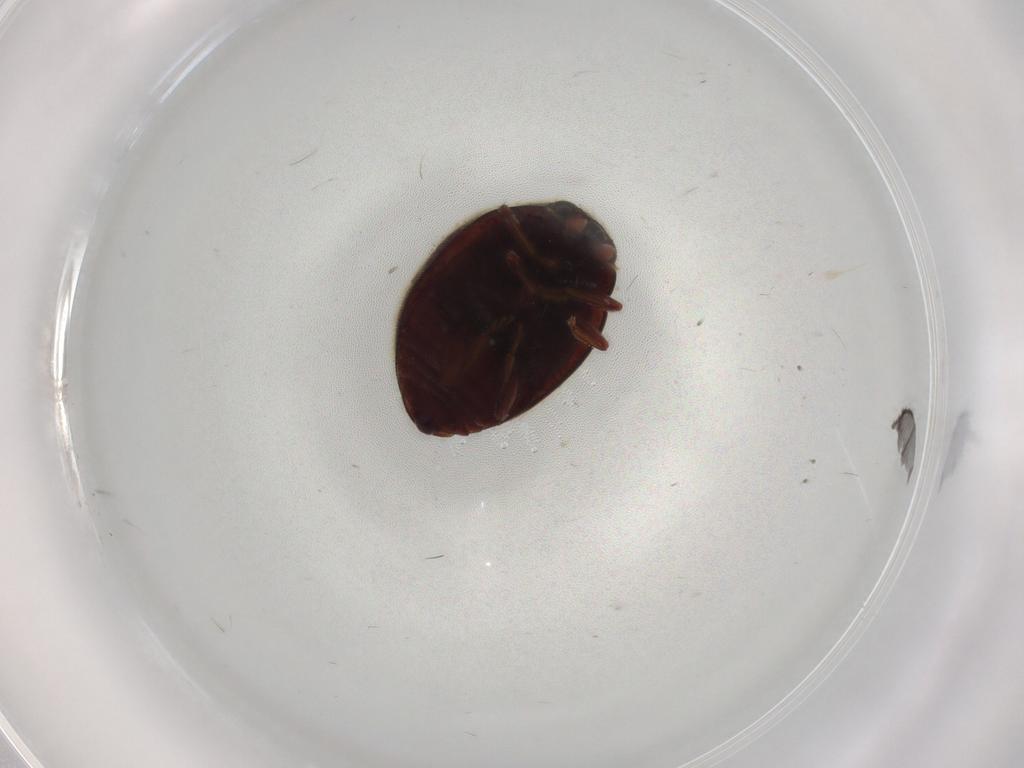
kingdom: Animalia
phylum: Arthropoda
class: Insecta
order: Coleoptera
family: Coccinellidae
